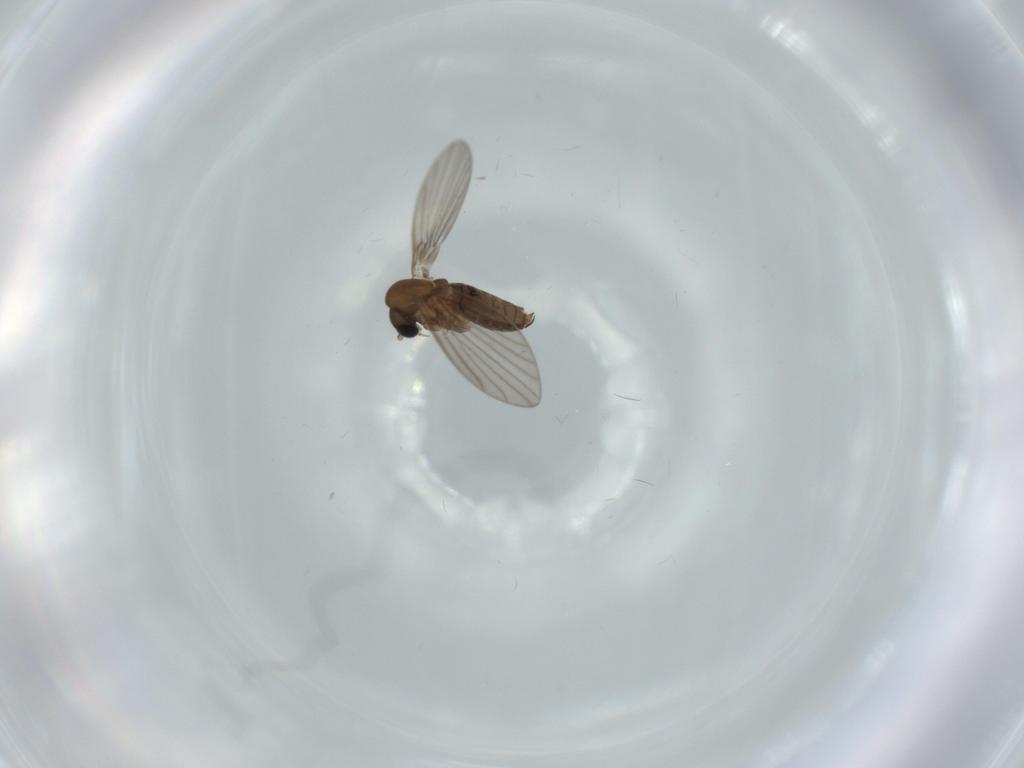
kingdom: Animalia
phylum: Arthropoda
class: Insecta
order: Diptera
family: Psychodidae
